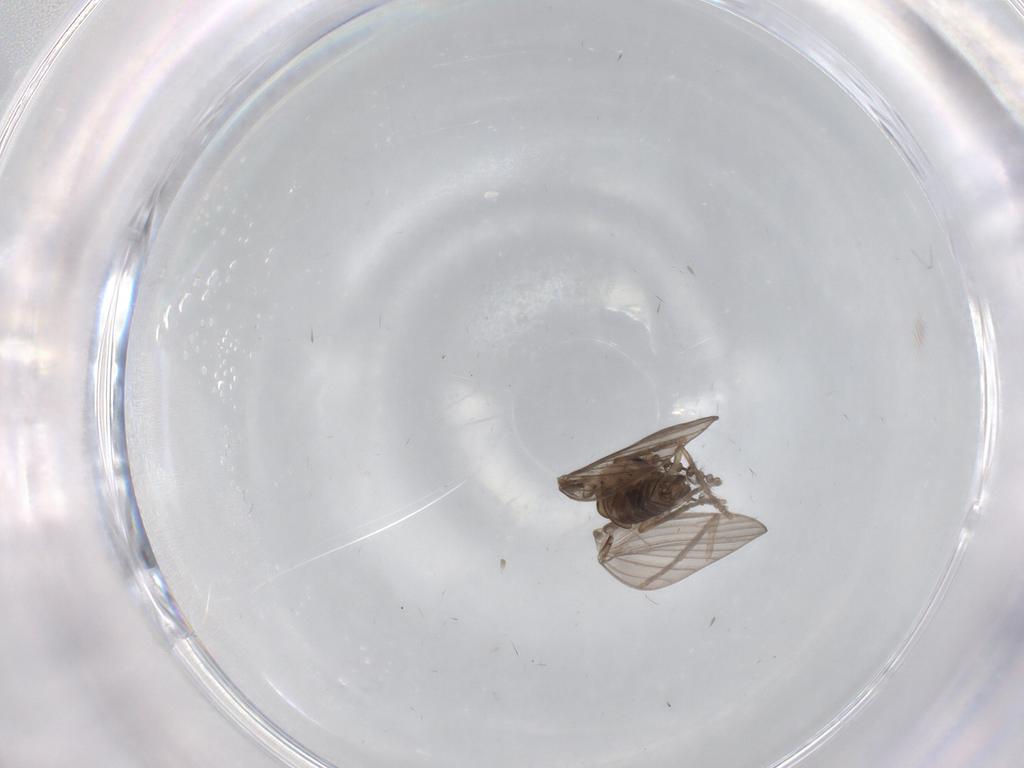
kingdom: Animalia
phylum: Arthropoda
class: Insecta
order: Diptera
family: Psychodidae
